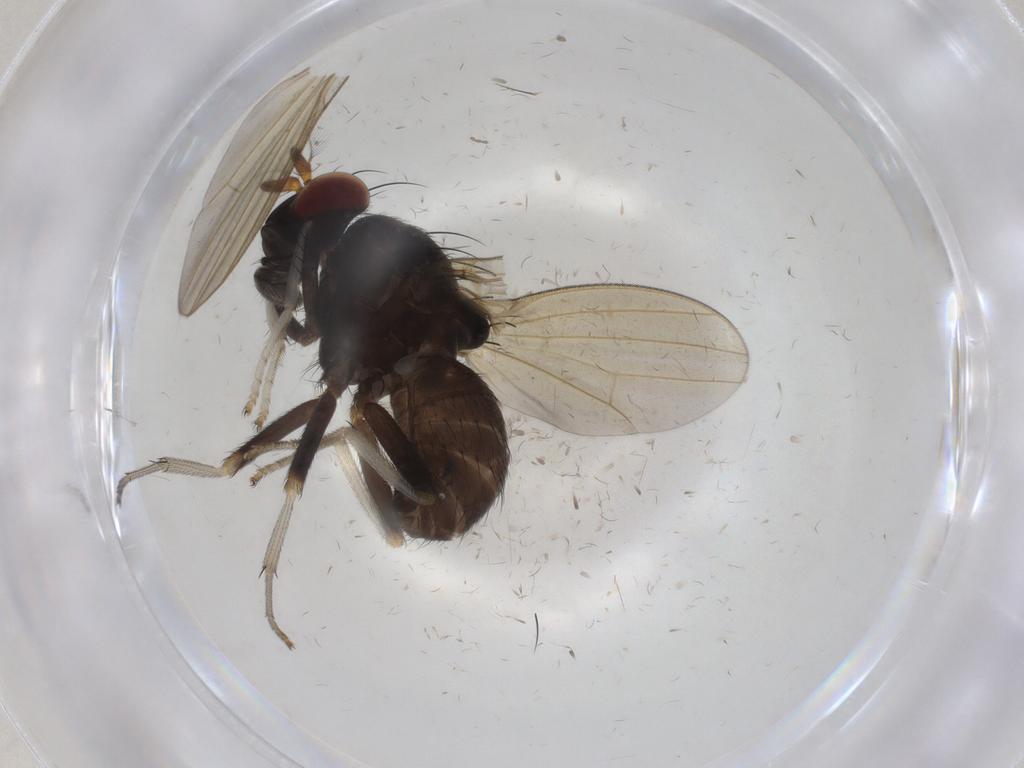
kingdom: Animalia
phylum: Arthropoda
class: Insecta
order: Diptera
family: Lauxaniidae
